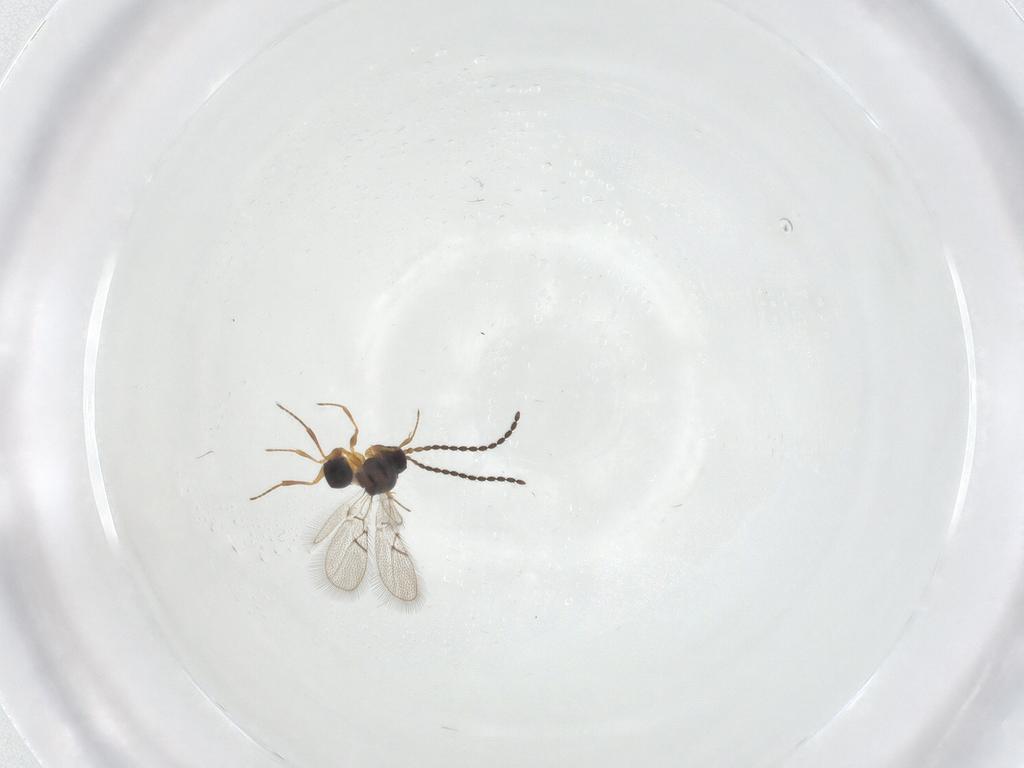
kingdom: Animalia
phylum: Arthropoda
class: Insecta
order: Hymenoptera
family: Figitidae
